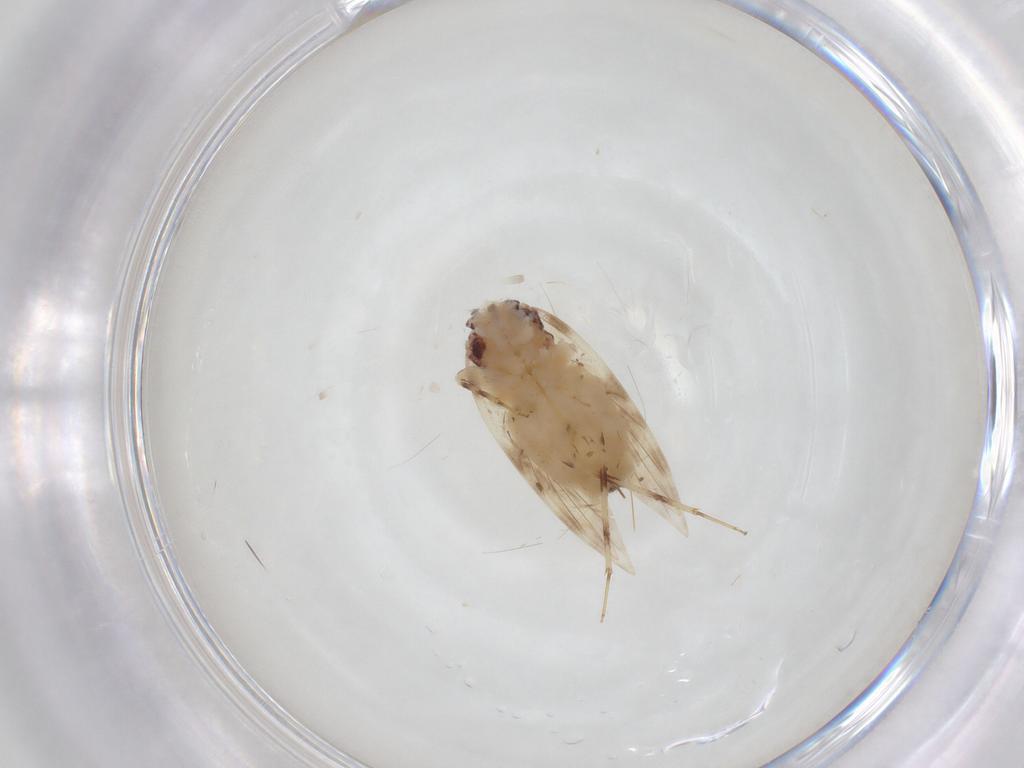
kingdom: Animalia
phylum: Arthropoda
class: Insecta
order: Psocodea
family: Lepidopsocidae
